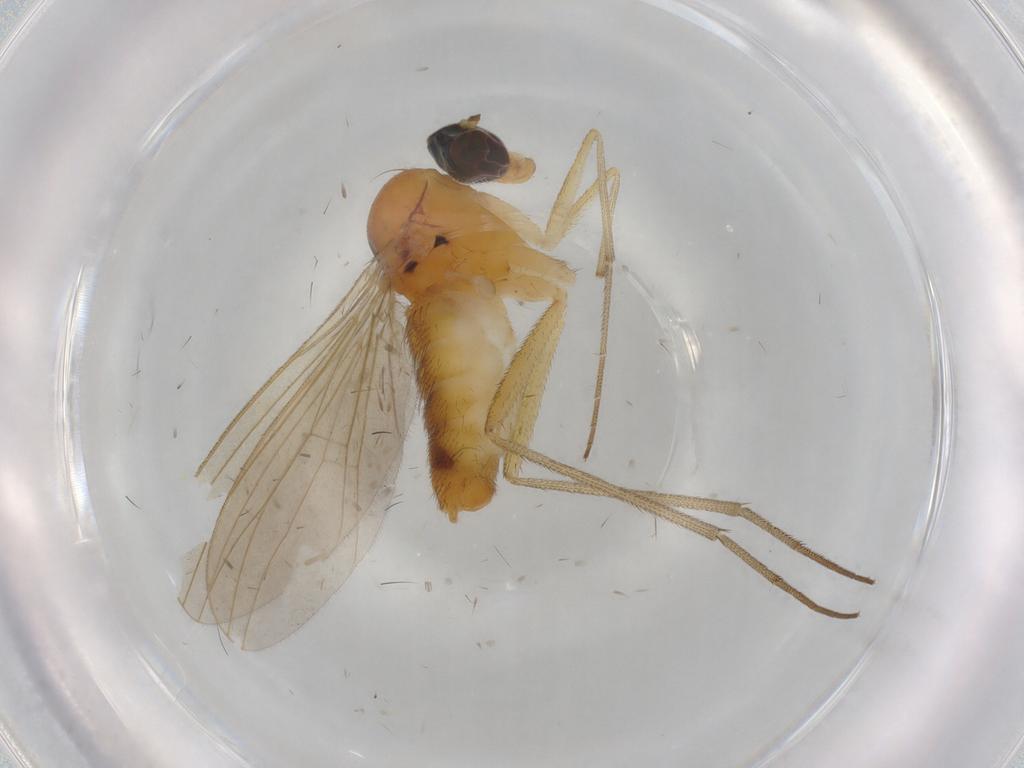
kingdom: Animalia
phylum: Arthropoda
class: Insecta
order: Diptera
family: Dolichopodidae
